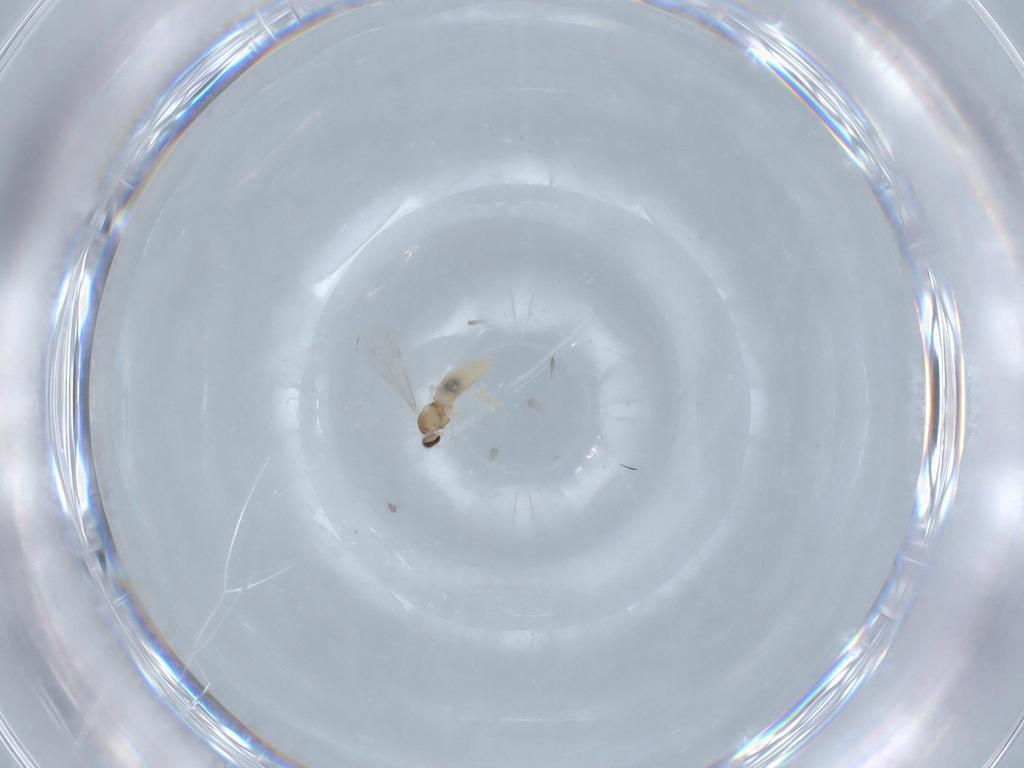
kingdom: Animalia
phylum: Arthropoda
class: Insecta
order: Diptera
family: Cecidomyiidae
